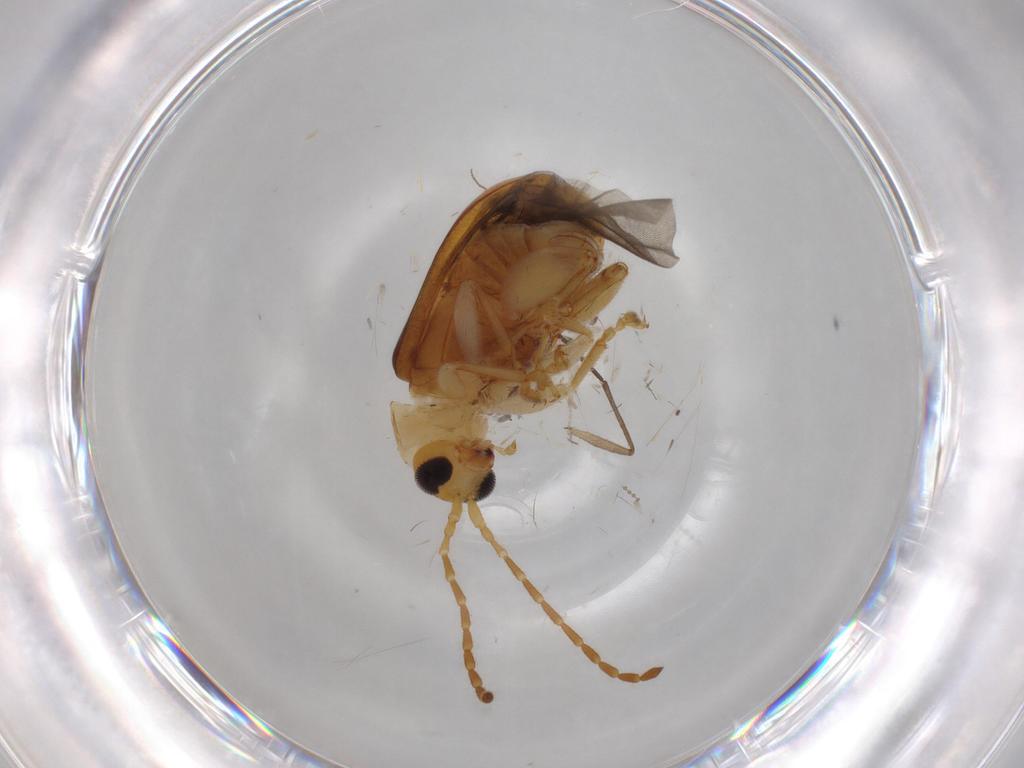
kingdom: Animalia
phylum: Arthropoda
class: Insecta
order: Coleoptera
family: Chrysomelidae
